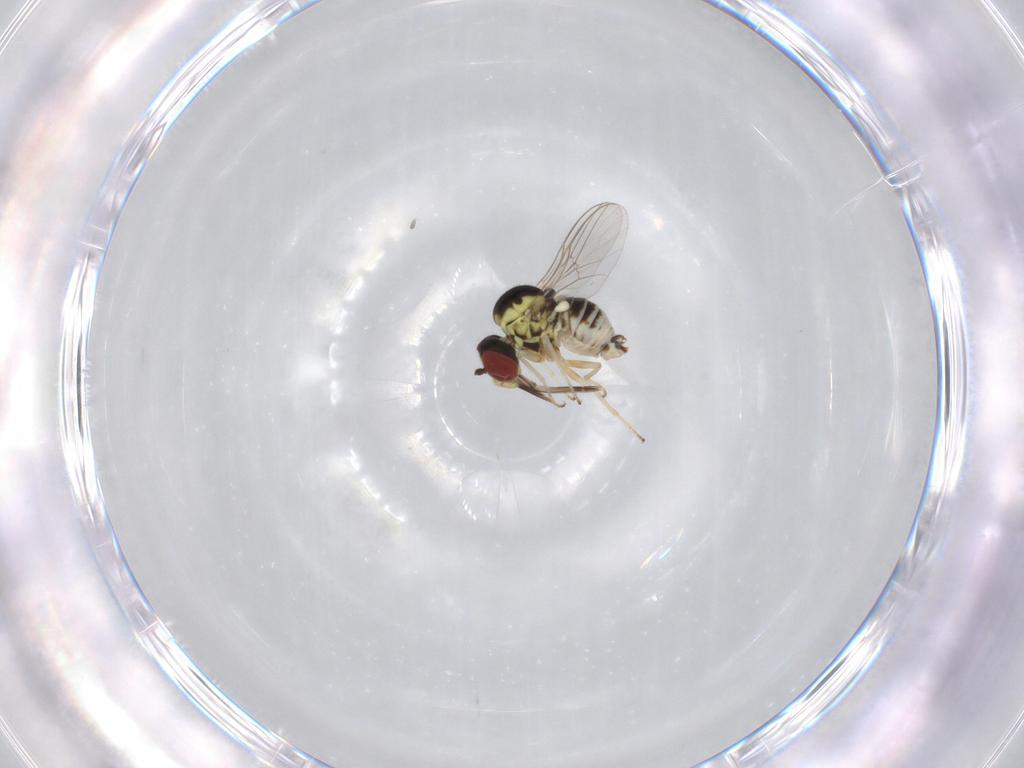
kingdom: Animalia
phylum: Arthropoda
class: Insecta
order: Diptera
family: Bombyliidae
